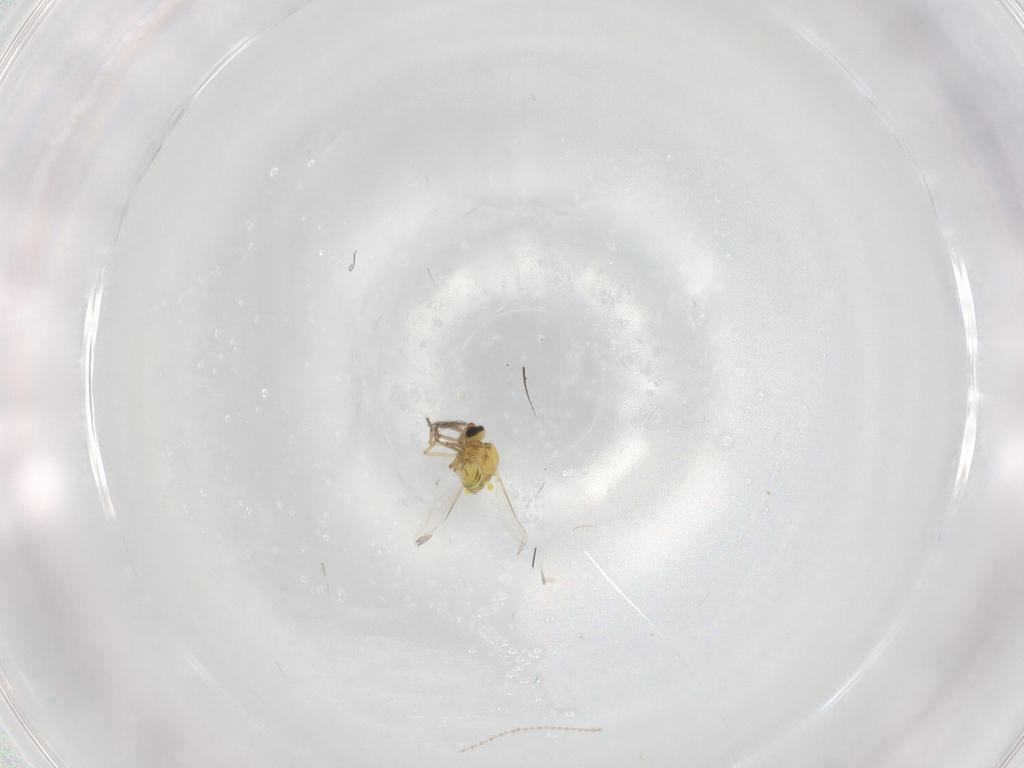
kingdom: Animalia
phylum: Arthropoda
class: Insecta
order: Diptera
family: Ceratopogonidae
